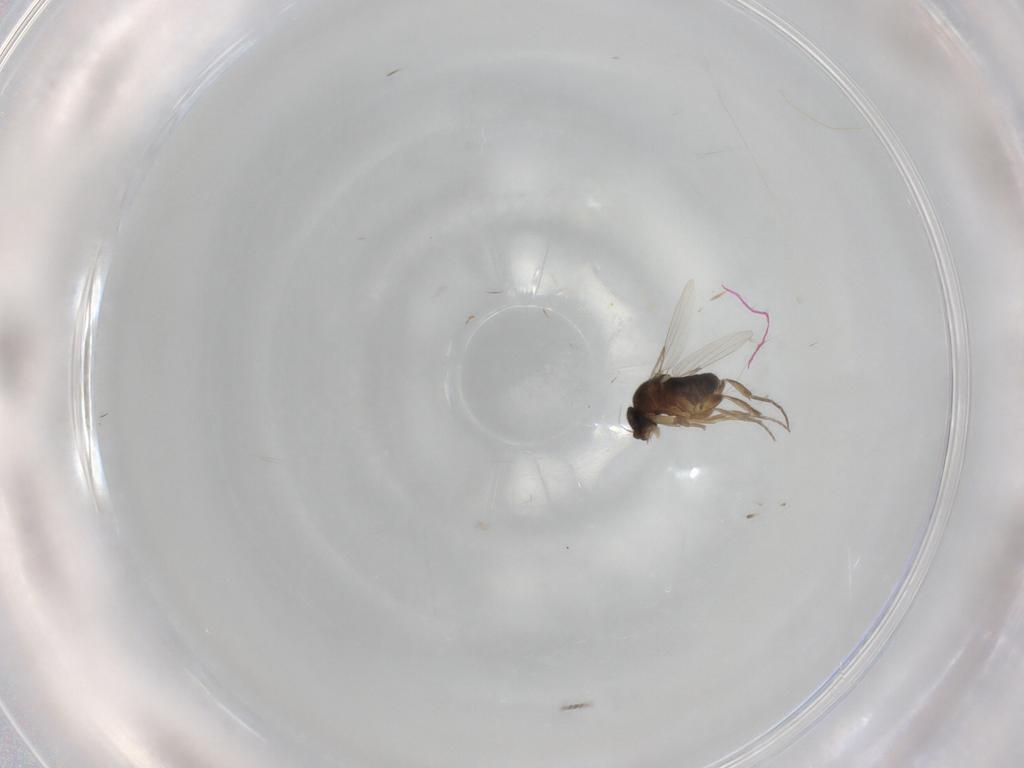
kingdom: Animalia
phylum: Arthropoda
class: Insecta
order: Diptera
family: Phoridae
